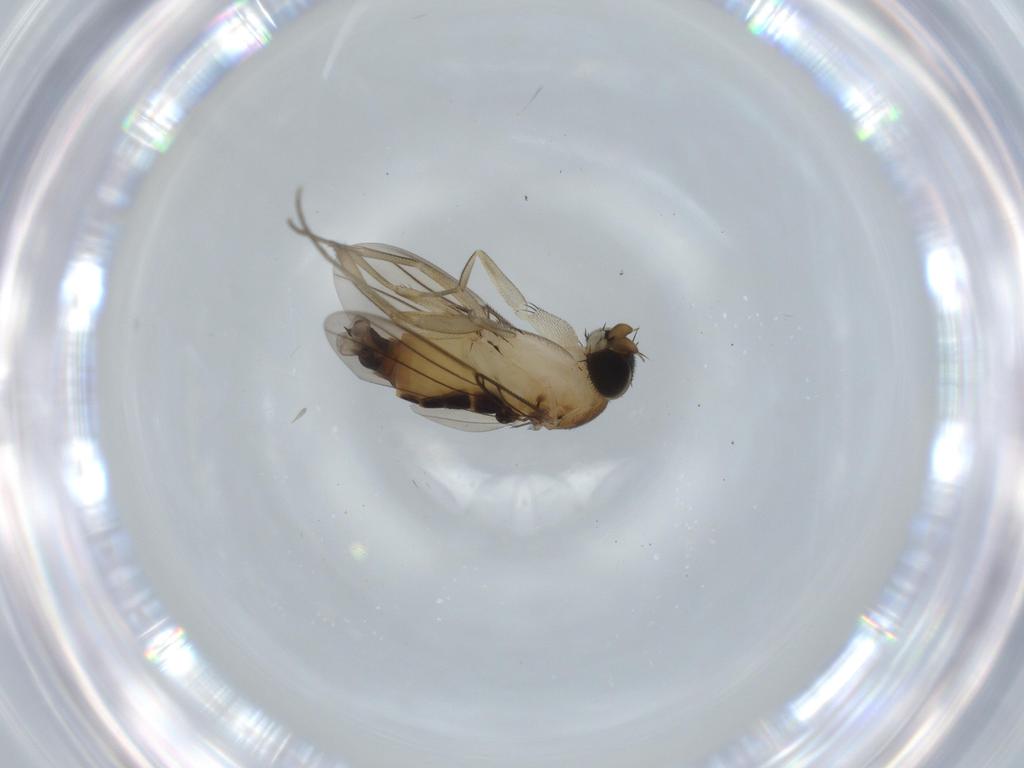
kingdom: Animalia
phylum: Arthropoda
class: Insecta
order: Diptera
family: Phoridae
